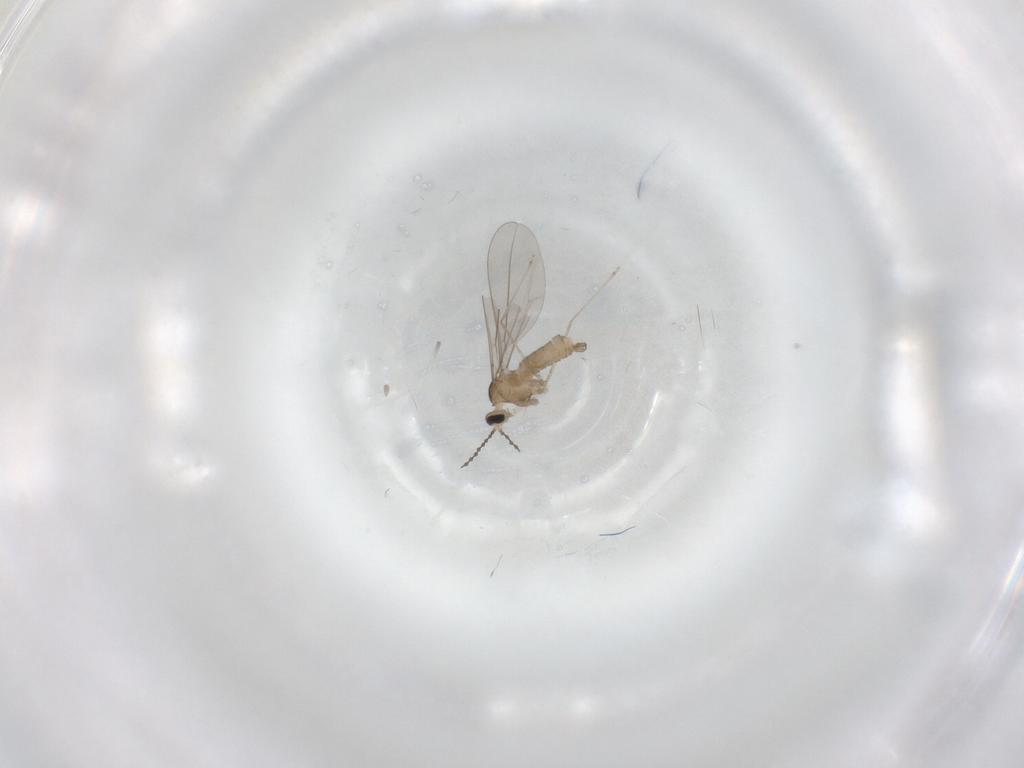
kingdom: Animalia
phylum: Arthropoda
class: Insecta
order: Diptera
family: Cecidomyiidae
